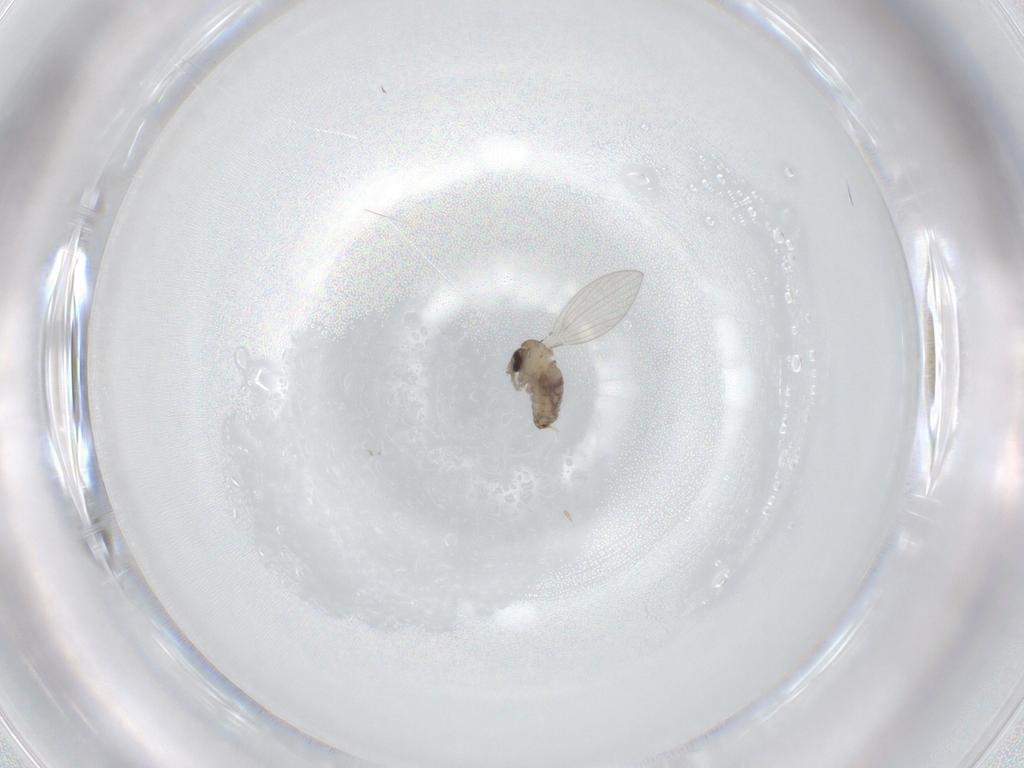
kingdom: Animalia
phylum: Arthropoda
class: Insecta
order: Diptera
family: Psychodidae
